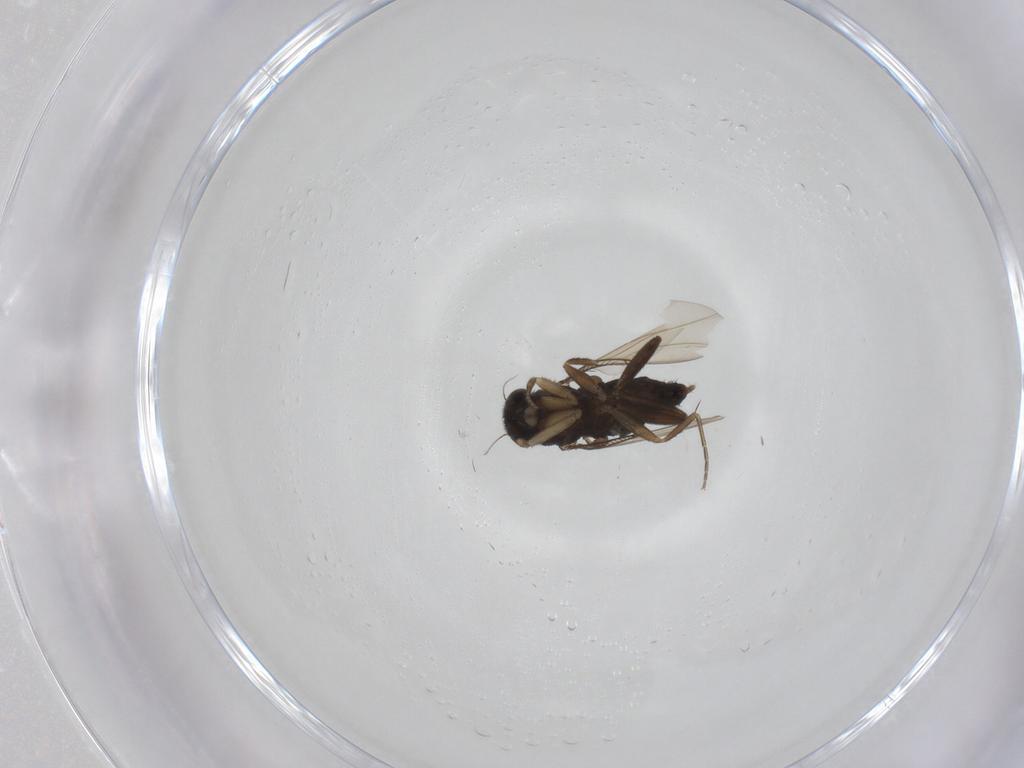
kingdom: Animalia
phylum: Arthropoda
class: Insecta
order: Diptera
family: Phoridae
